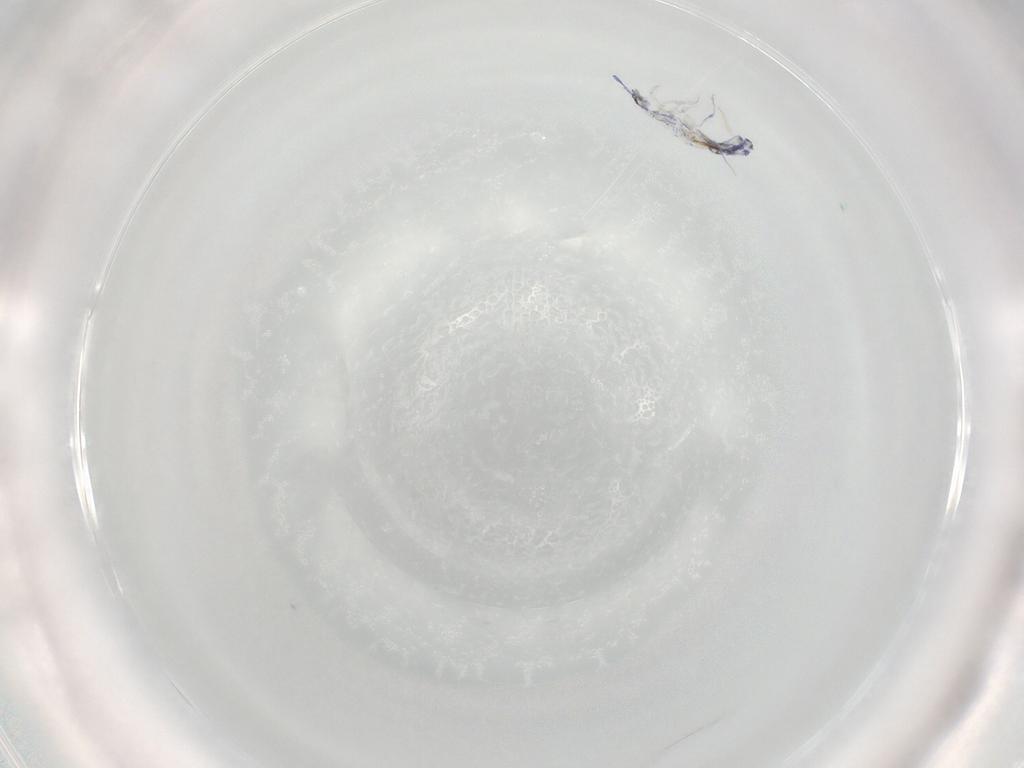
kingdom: Animalia
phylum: Arthropoda
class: Collembola
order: Entomobryomorpha
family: Entomobryidae
